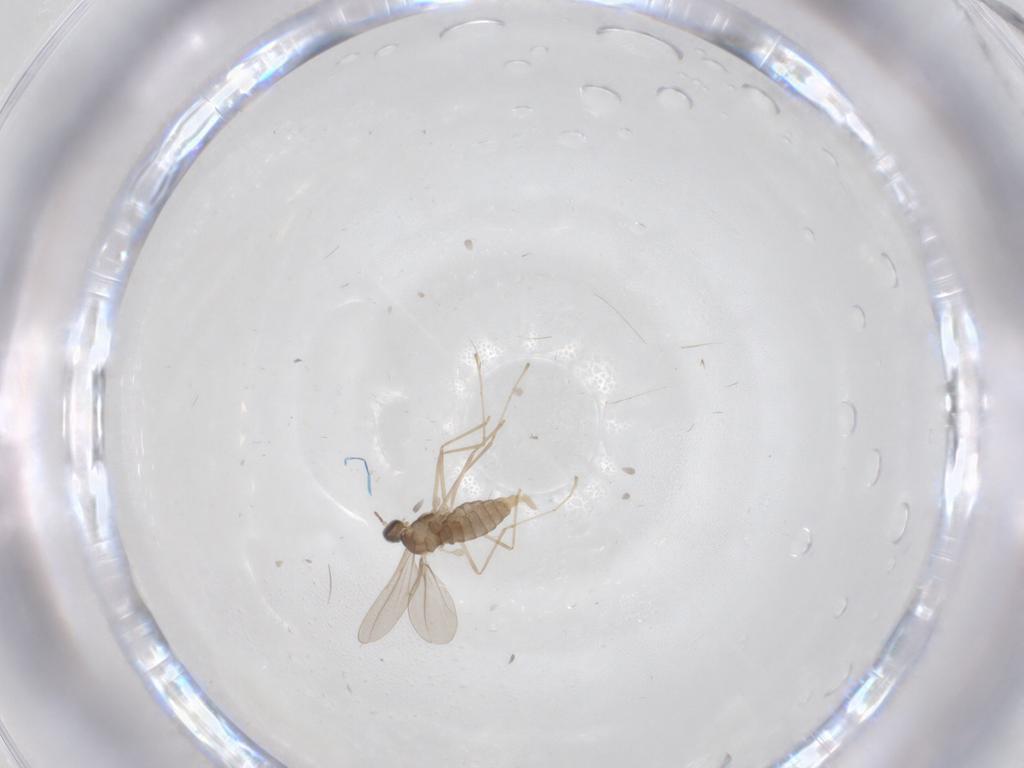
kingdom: Animalia
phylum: Arthropoda
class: Insecta
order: Diptera
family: Cecidomyiidae
